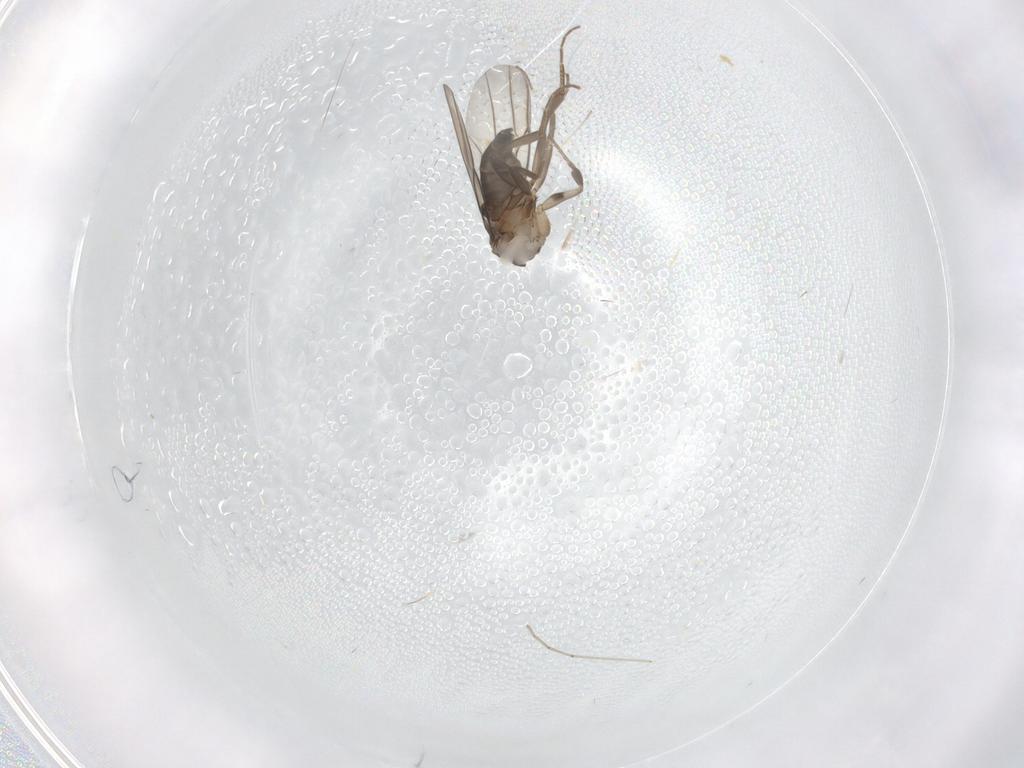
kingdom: Animalia
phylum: Arthropoda
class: Insecta
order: Diptera
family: Phoridae
